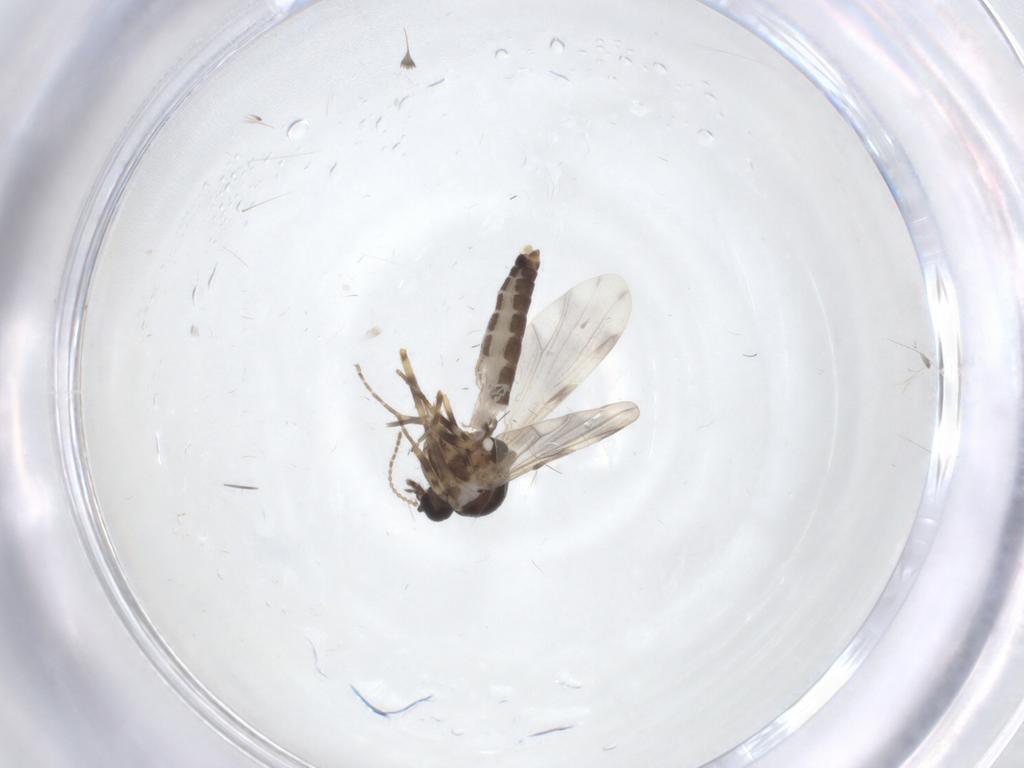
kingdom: Animalia
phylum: Arthropoda
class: Insecta
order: Diptera
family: Ceratopogonidae
